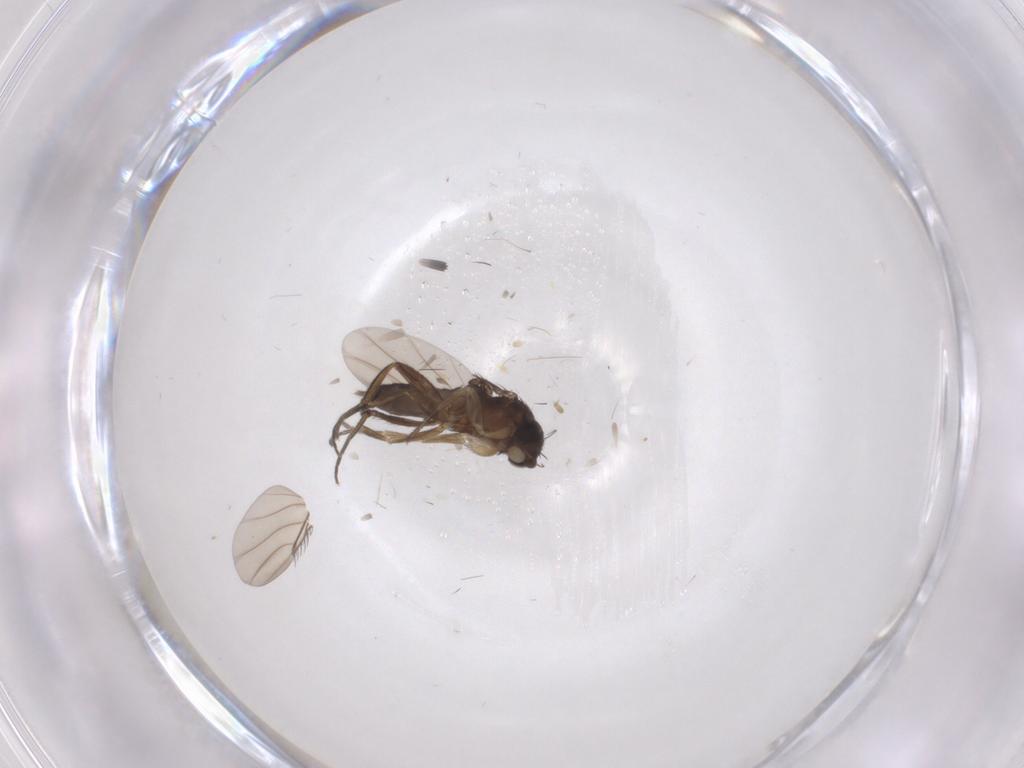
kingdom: Animalia
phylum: Arthropoda
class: Insecta
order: Diptera
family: Phoridae
